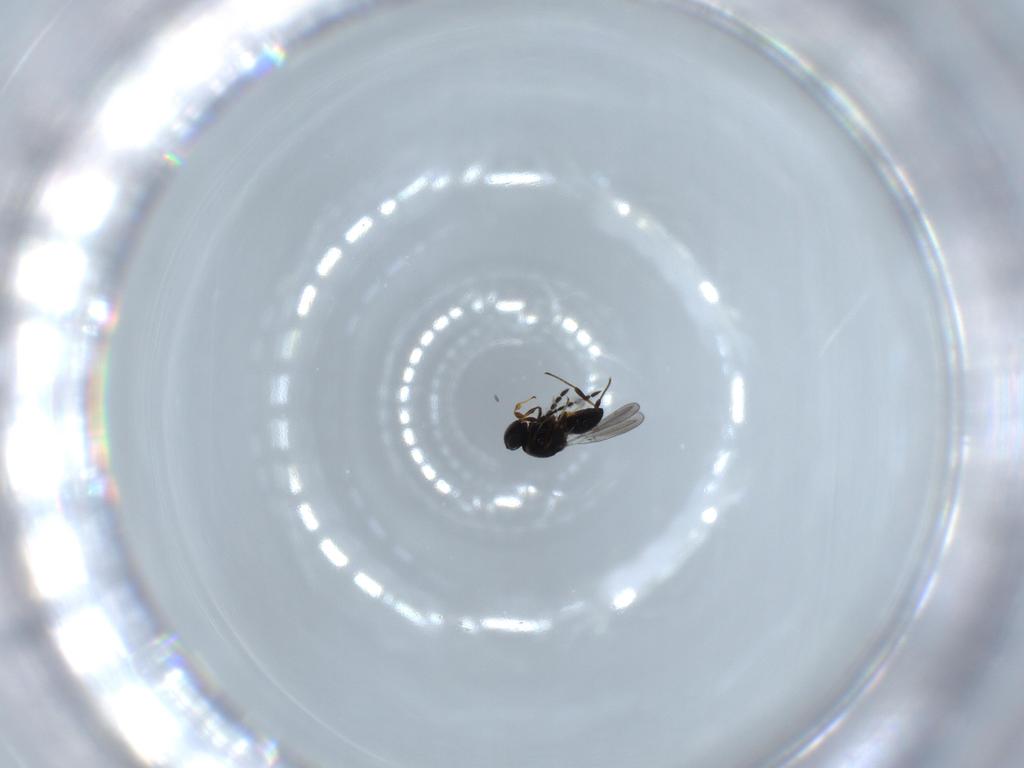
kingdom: Animalia
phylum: Arthropoda
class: Insecta
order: Hymenoptera
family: Platygastridae
